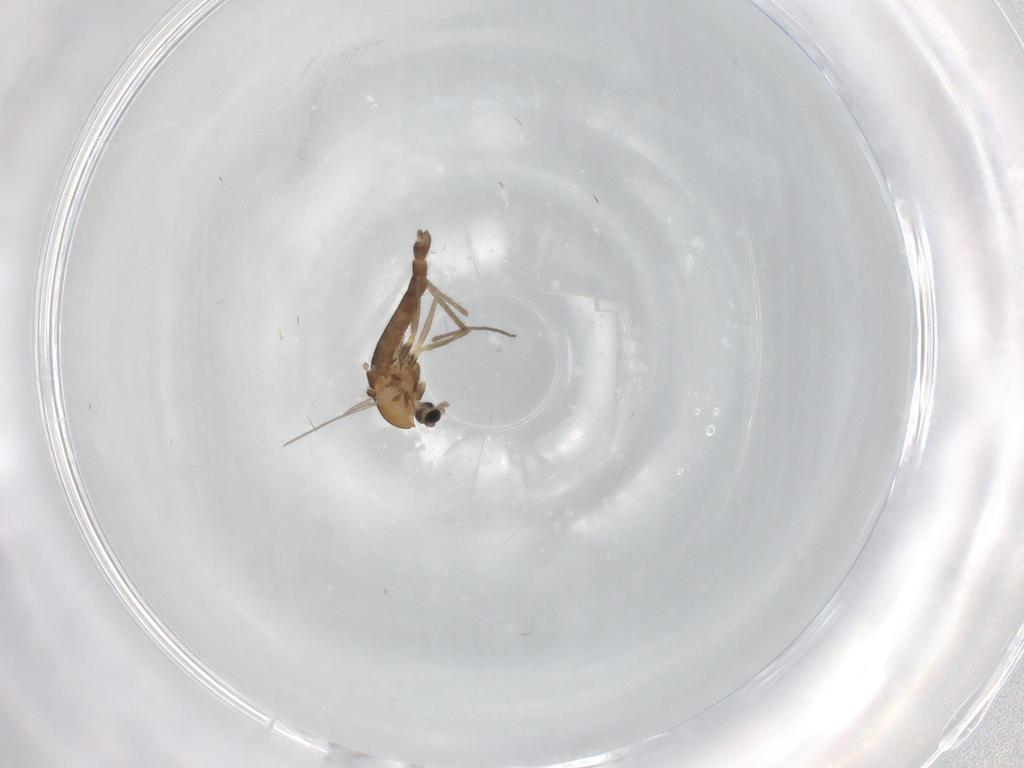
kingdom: Animalia
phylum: Arthropoda
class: Insecta
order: Diptera
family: Chironomidae
